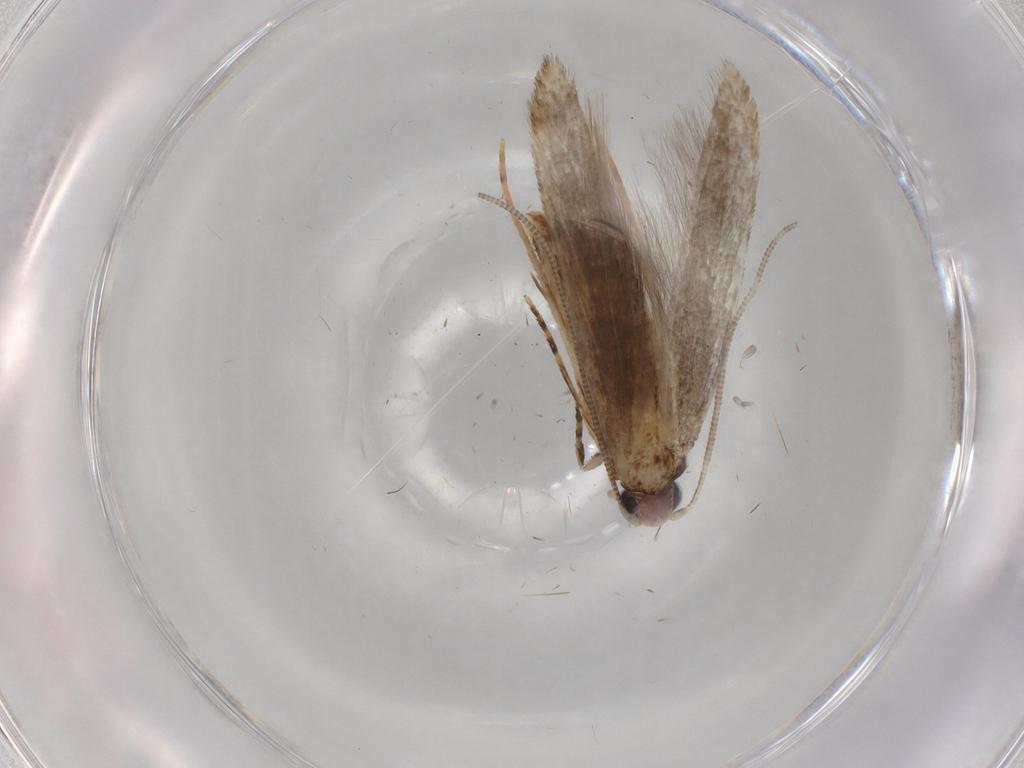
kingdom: Animalia
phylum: Arthropoda
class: Insecta
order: Lepidoptera
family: Tineidae
